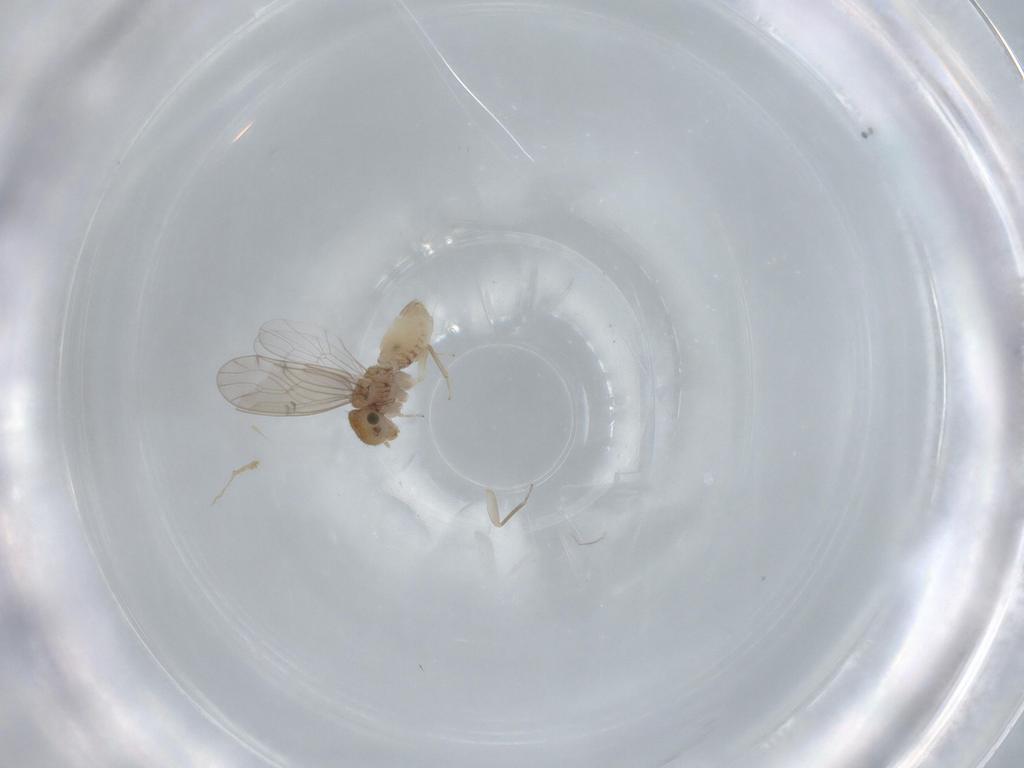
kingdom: Animalia
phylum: Arthropoda
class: Insecta
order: Psocodea
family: Ectopsocidae
